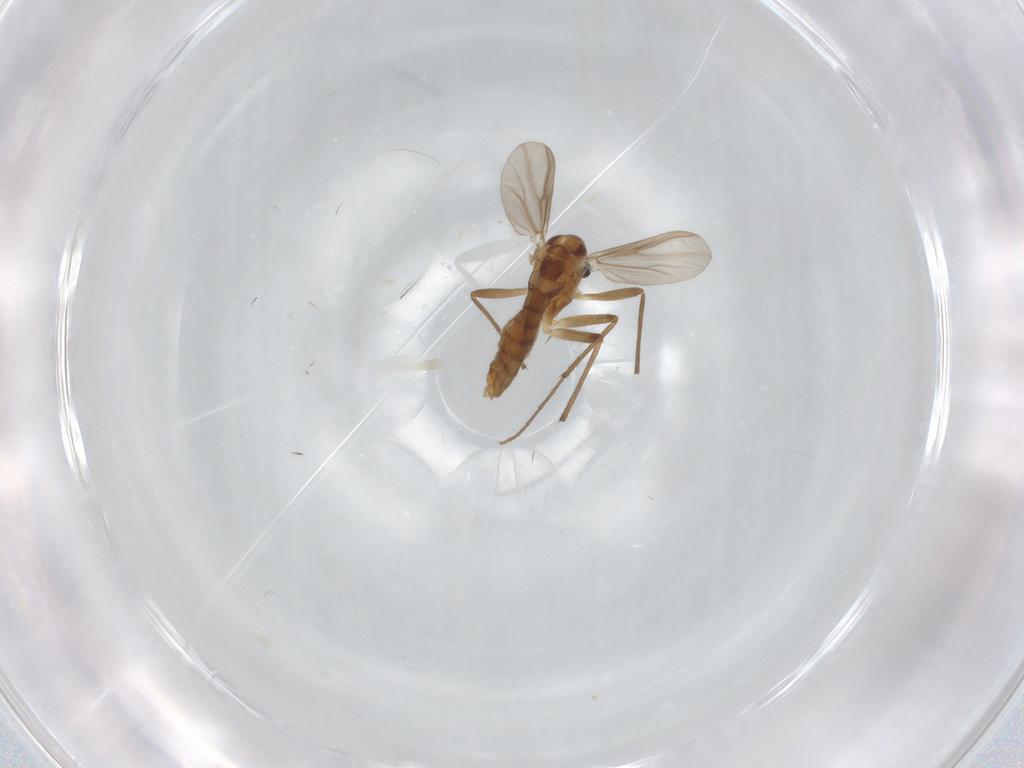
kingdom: Animalia
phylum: Arthropoda
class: Insecta
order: Diptera
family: Chironomidae
